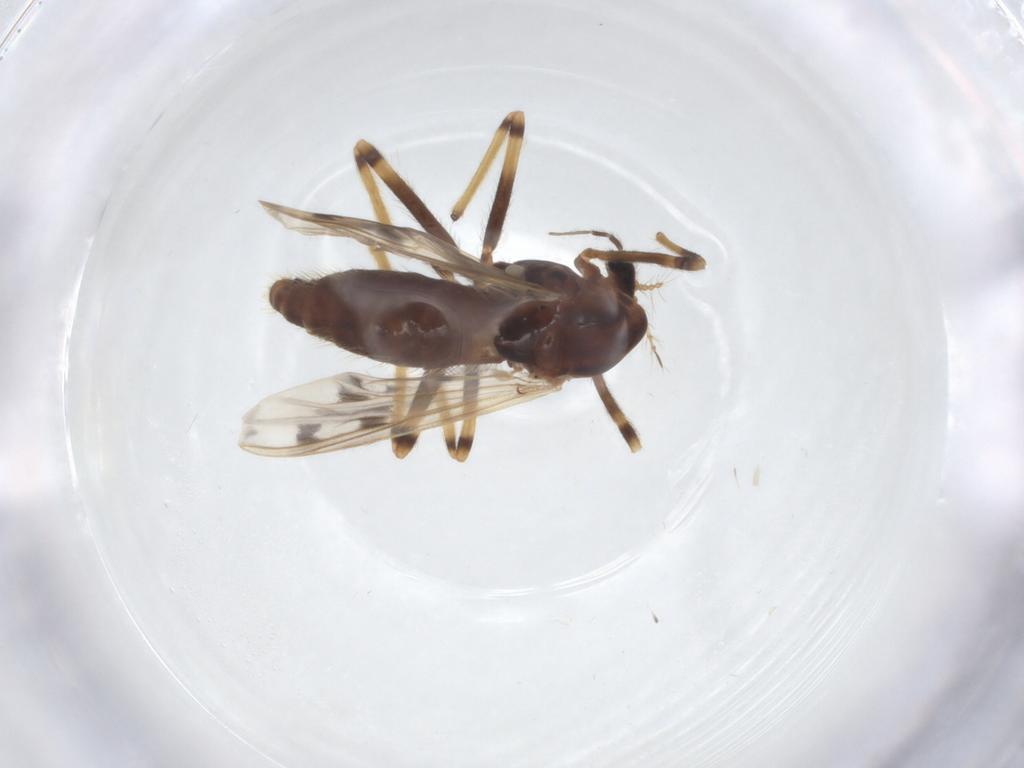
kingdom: Animalia
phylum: Arthropoda
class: Insecta
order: Diptera
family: Chironomidae
